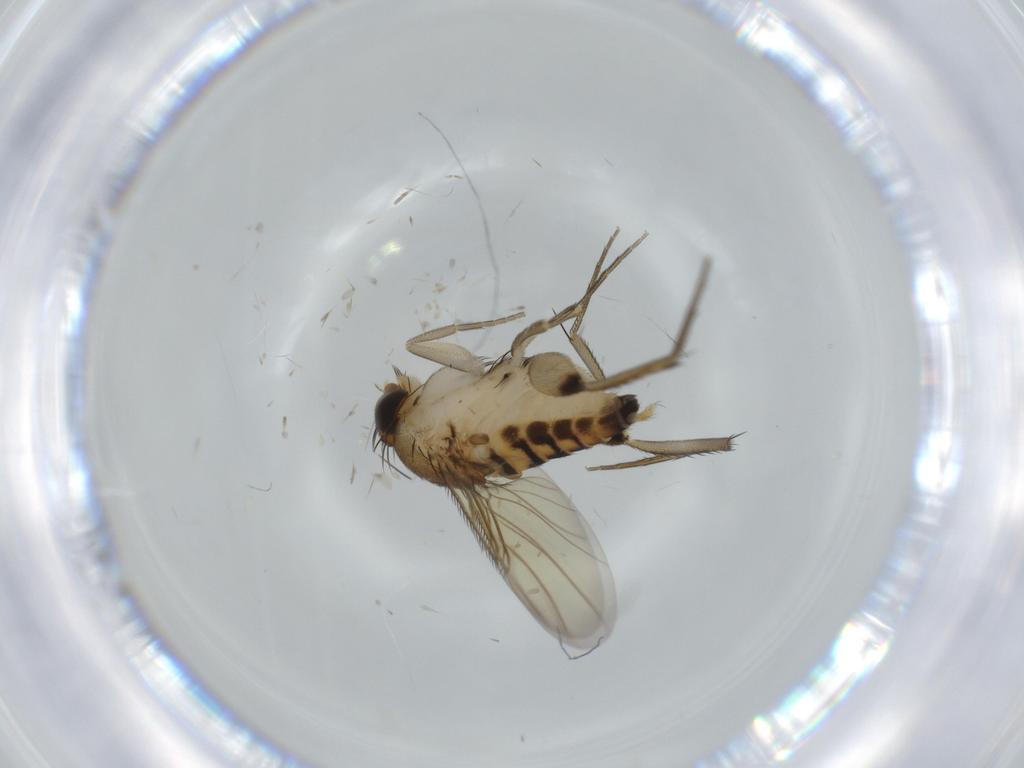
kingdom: Animalia
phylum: Arthropoda
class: Insecta
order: Diptera
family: Phoridae
